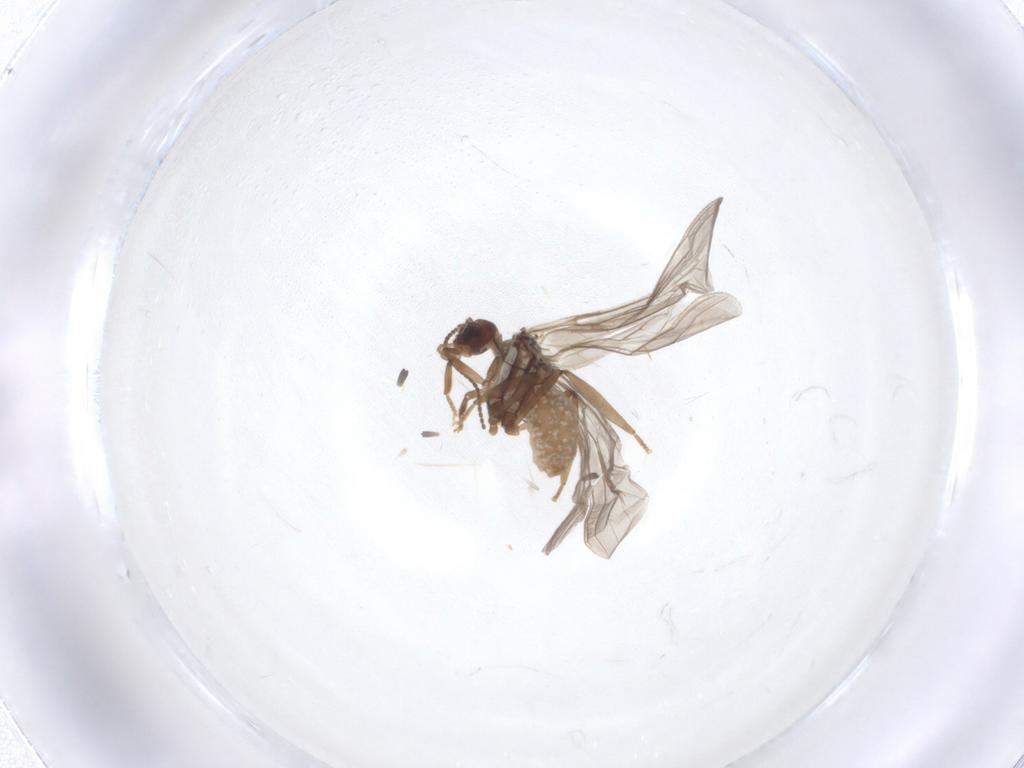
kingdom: Animalia
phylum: Arthropoda
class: Insecta
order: Neuroptera
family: Coniopterygidae
